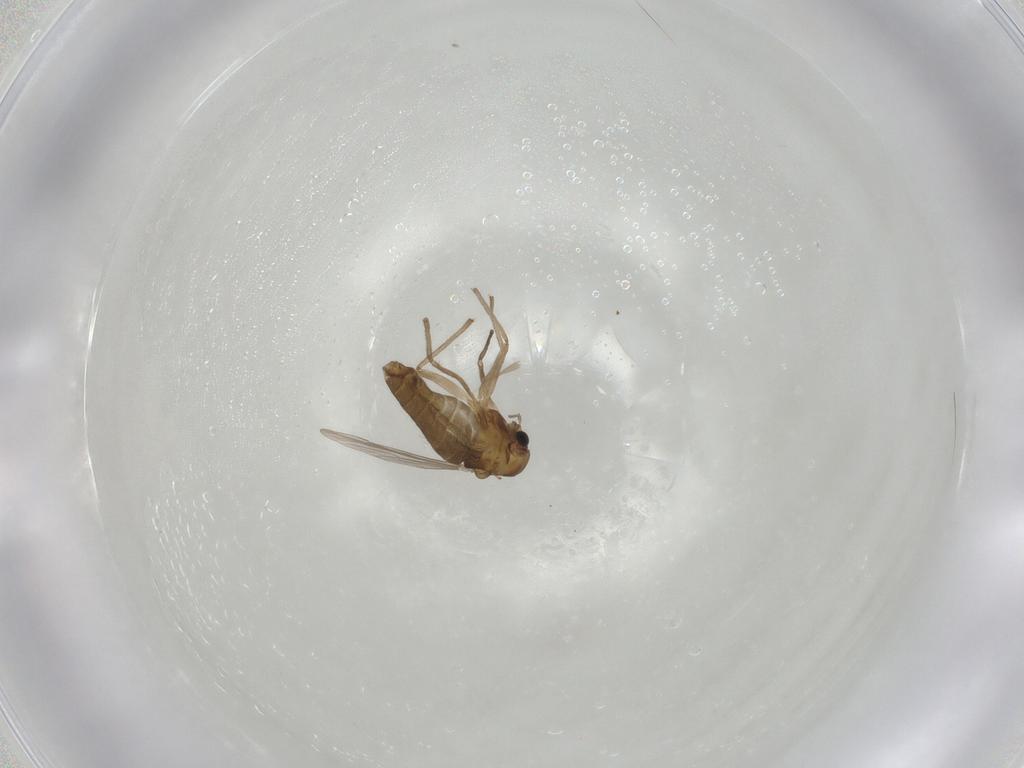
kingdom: Animalia
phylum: Arthropoda
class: Insecta
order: Diptera
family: Chironomidae
